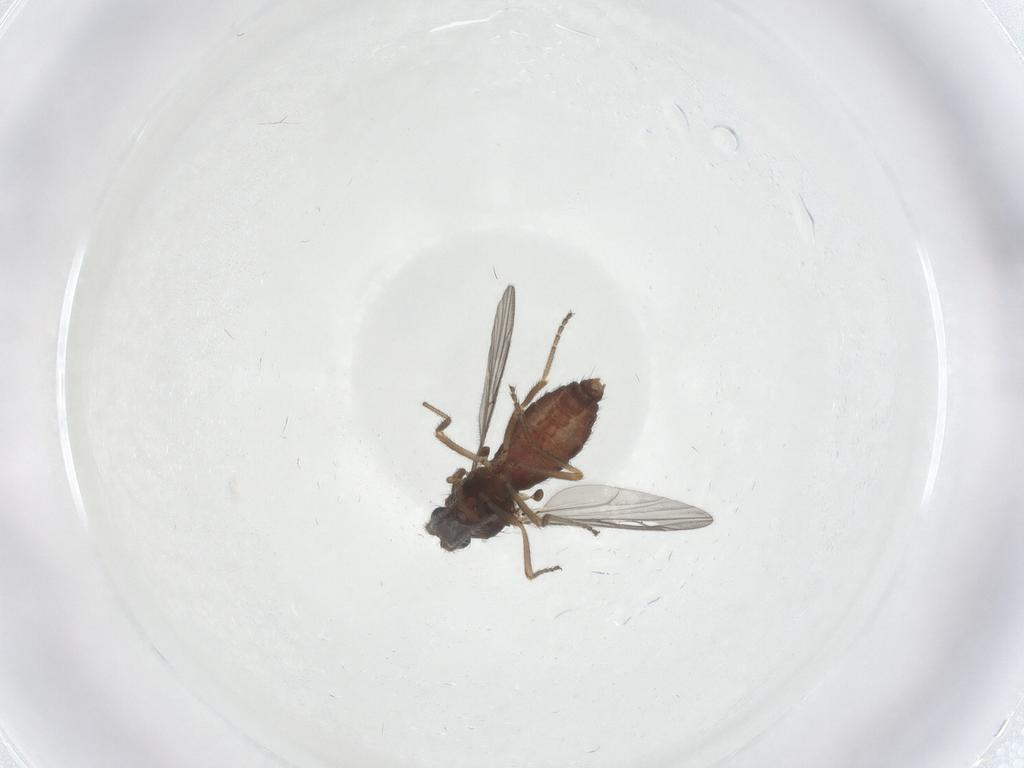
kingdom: Animalia
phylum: Arthropoda
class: Insecta
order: Diptera
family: Ceratopogonidae
